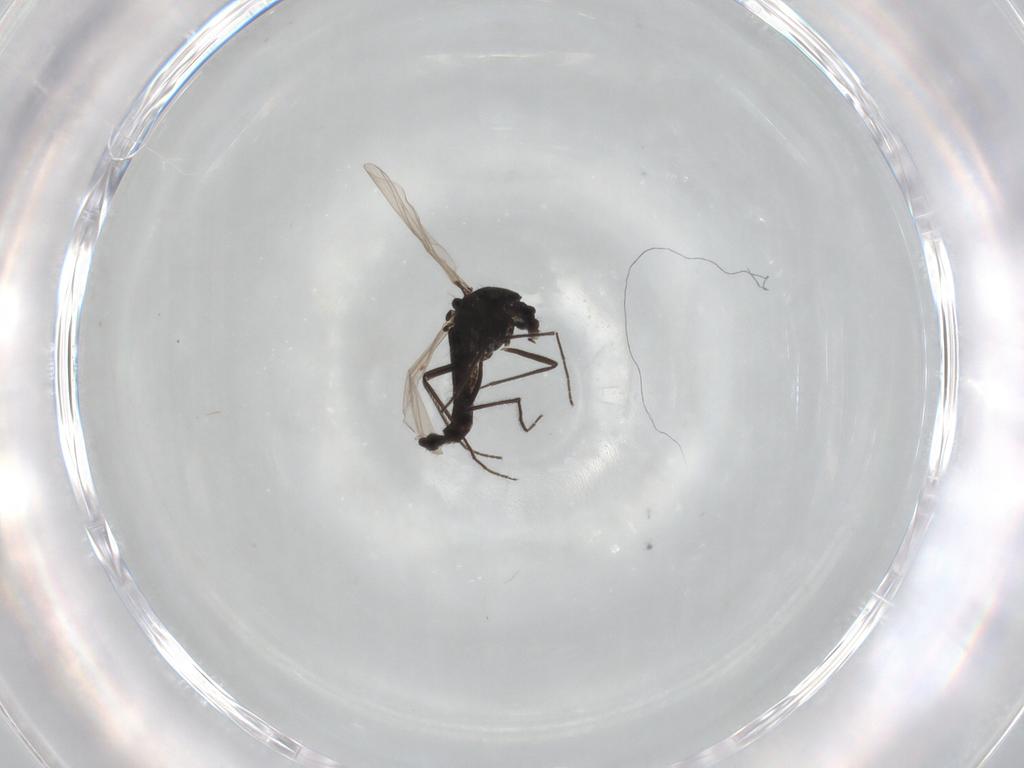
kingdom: Animalia
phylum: Arthropoda
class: Insecta
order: Diptera
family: Chironomidae
